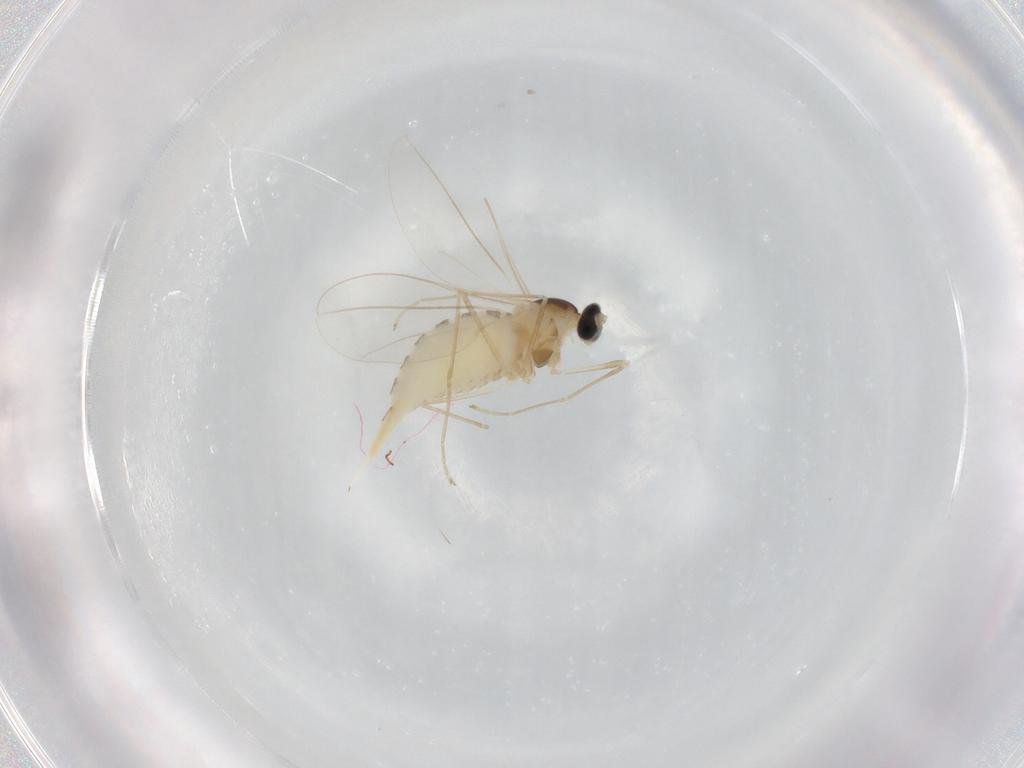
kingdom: Animalia
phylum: Arthropoda
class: Insecta
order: Diptera
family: Cecidomyiidae
